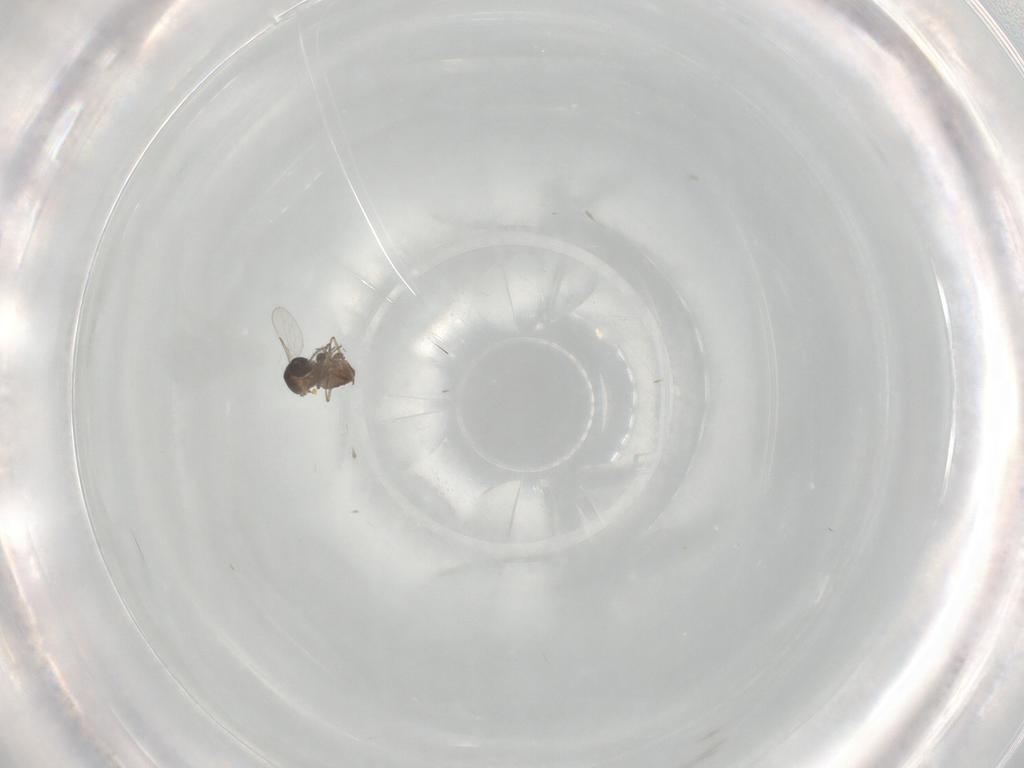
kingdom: Animalia
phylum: Arthropoda
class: Insecta
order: Diptera
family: Ceratopogonidae
